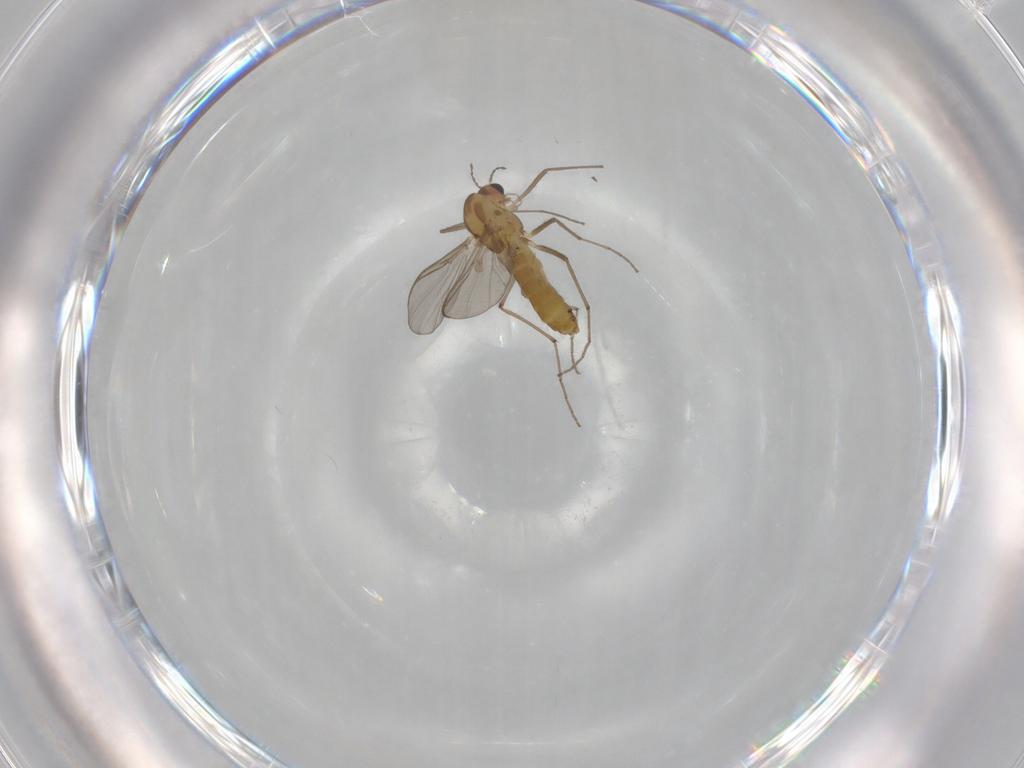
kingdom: Animalia
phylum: Arthropoda
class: Insecta
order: Diptera
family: Chironomidae
